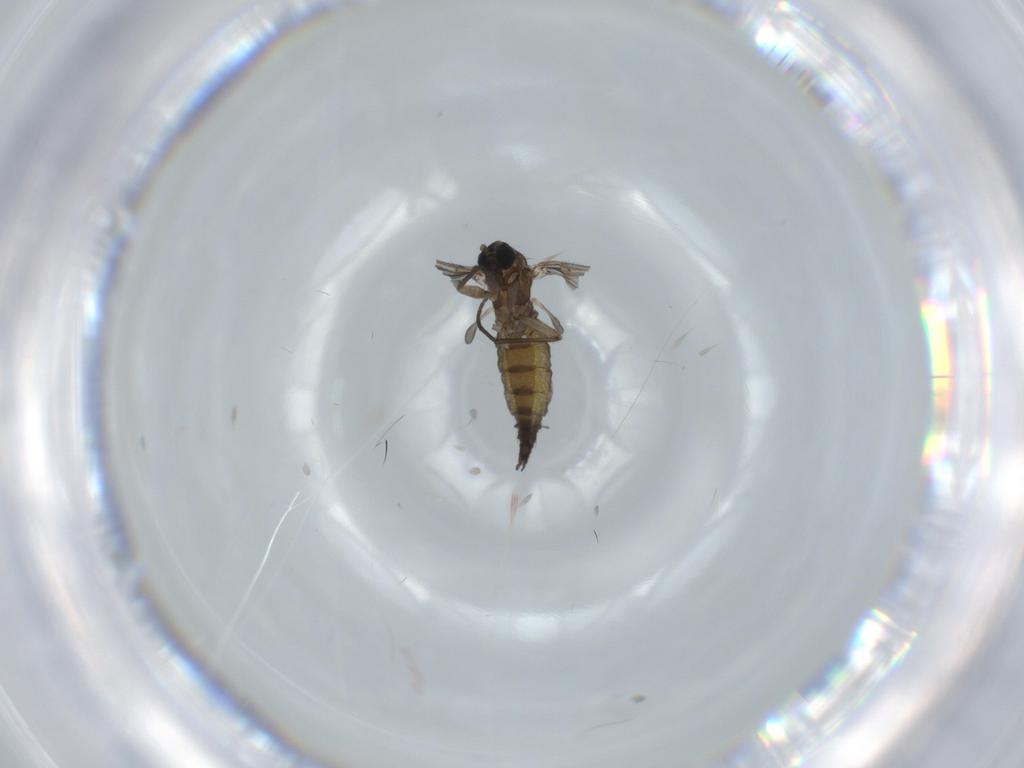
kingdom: Animalia
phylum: Arthropoda
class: Insecta
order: Diptera
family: Sciaridae
